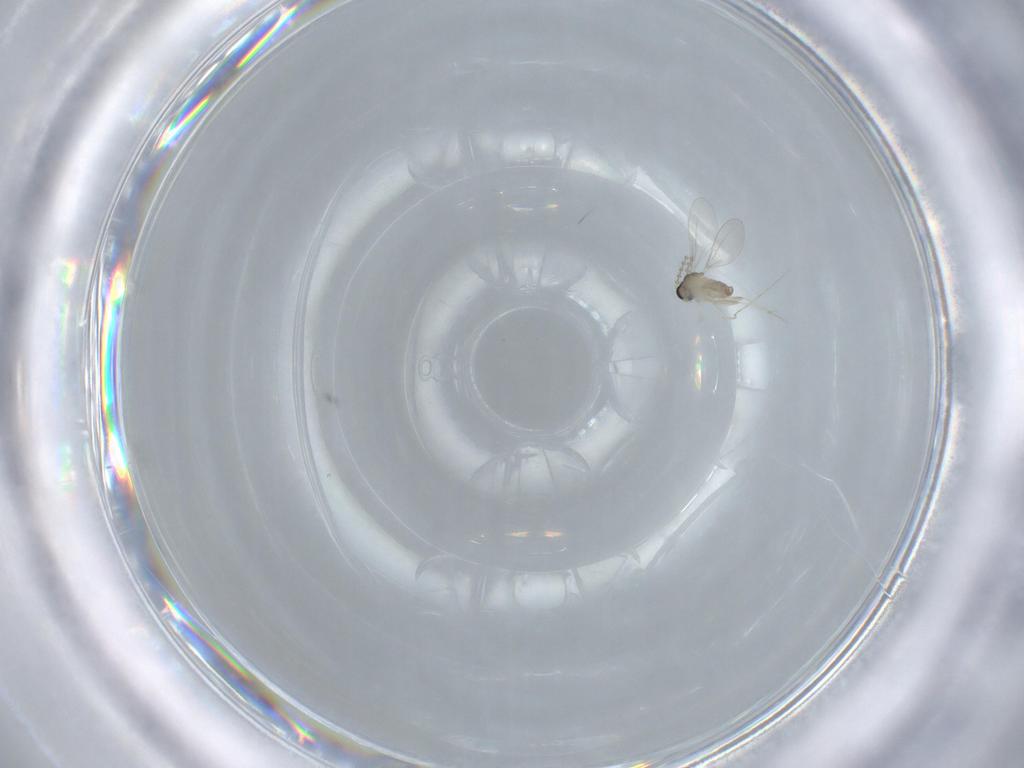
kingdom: Animalia
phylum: Arthropoda
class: Insecta
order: Diptera
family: Cecidomyiidae
